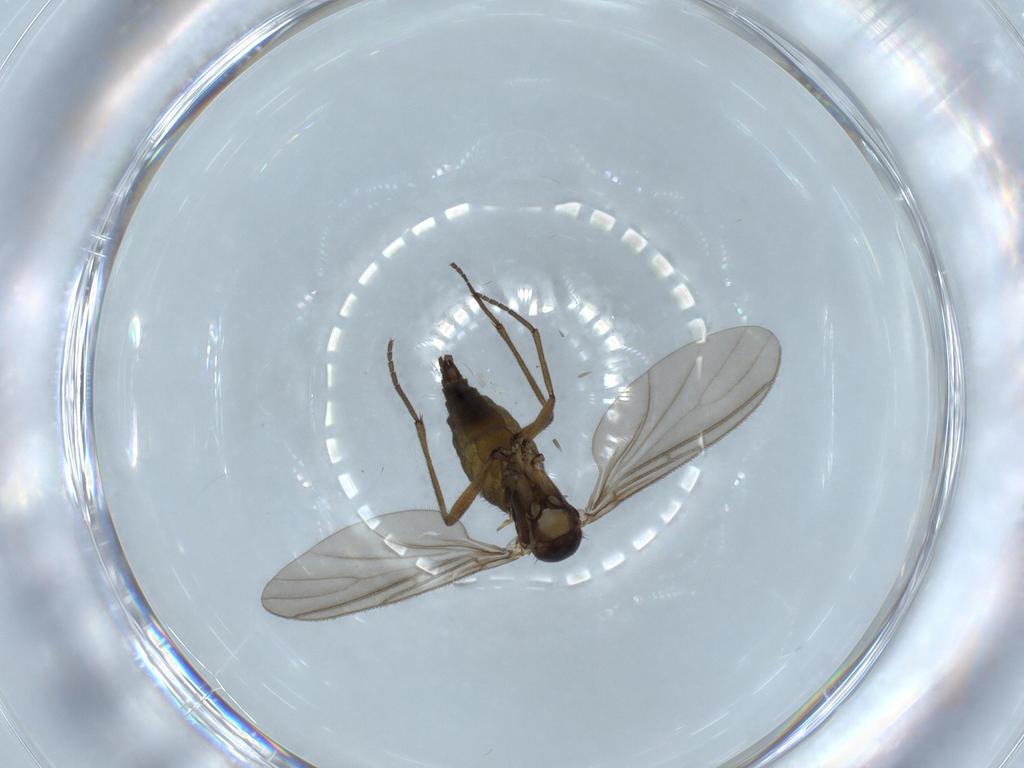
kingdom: Animalia
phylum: Arthropoda
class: Insecta
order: Diptera
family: Sciaridae
